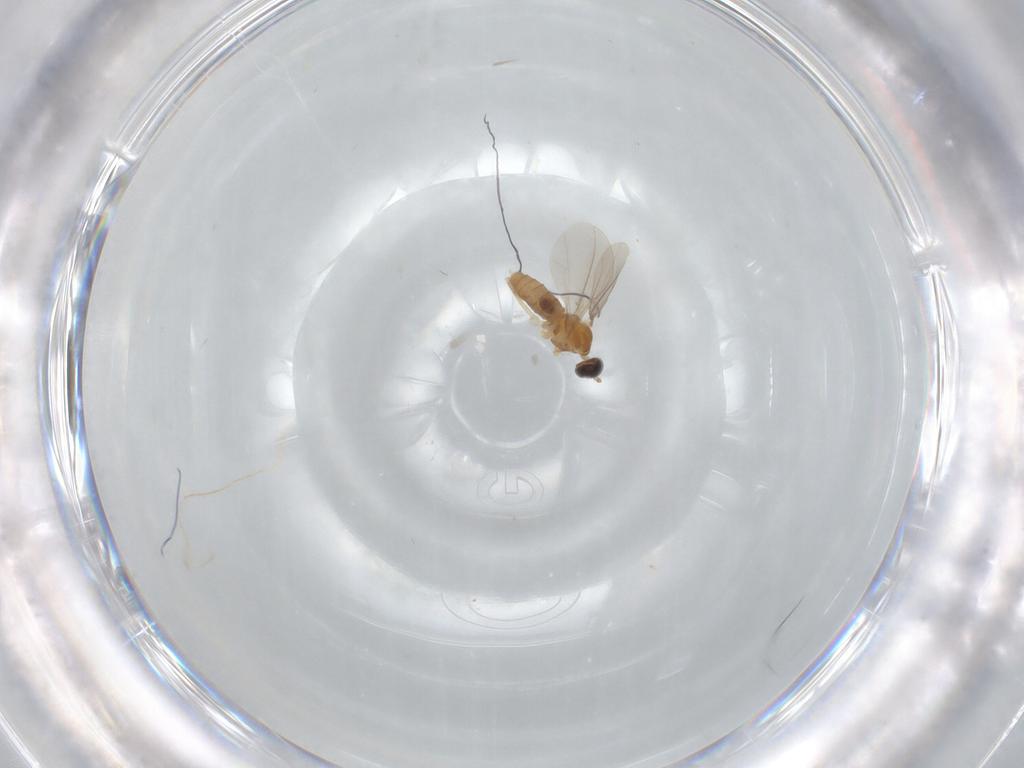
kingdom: Animalia
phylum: Arthropoda
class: Insecta
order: Diptera
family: Cecidomyiidae
